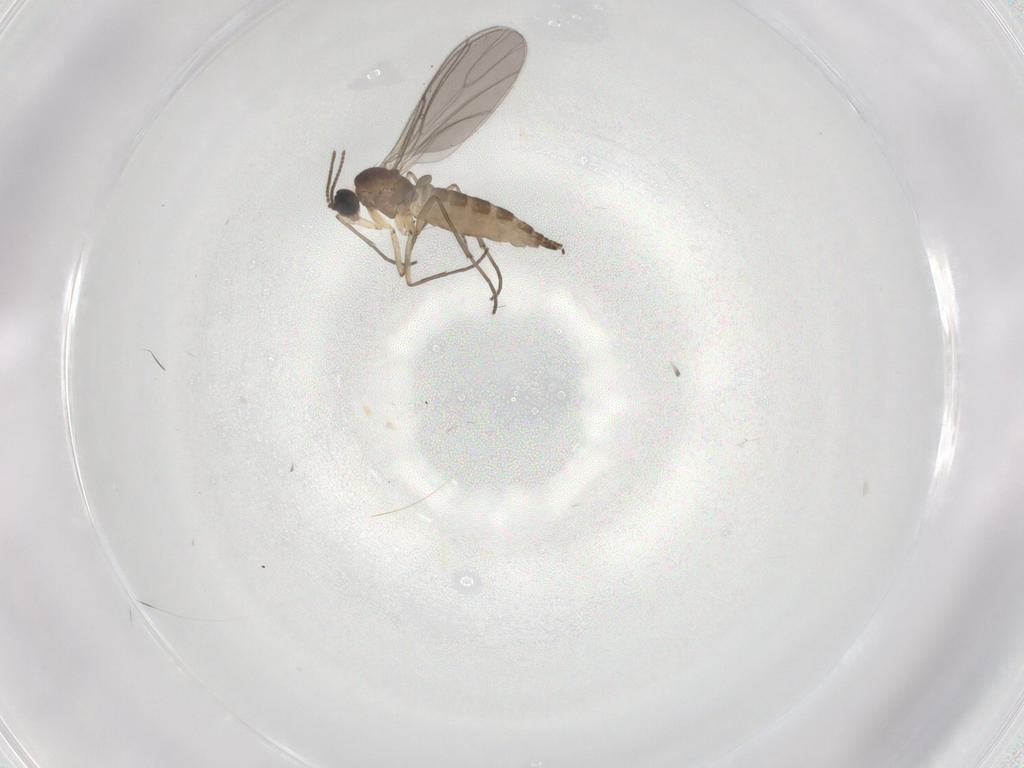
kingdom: Animalia
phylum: Arthropoda
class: Insecta
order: Diptera
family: Sciaridae
